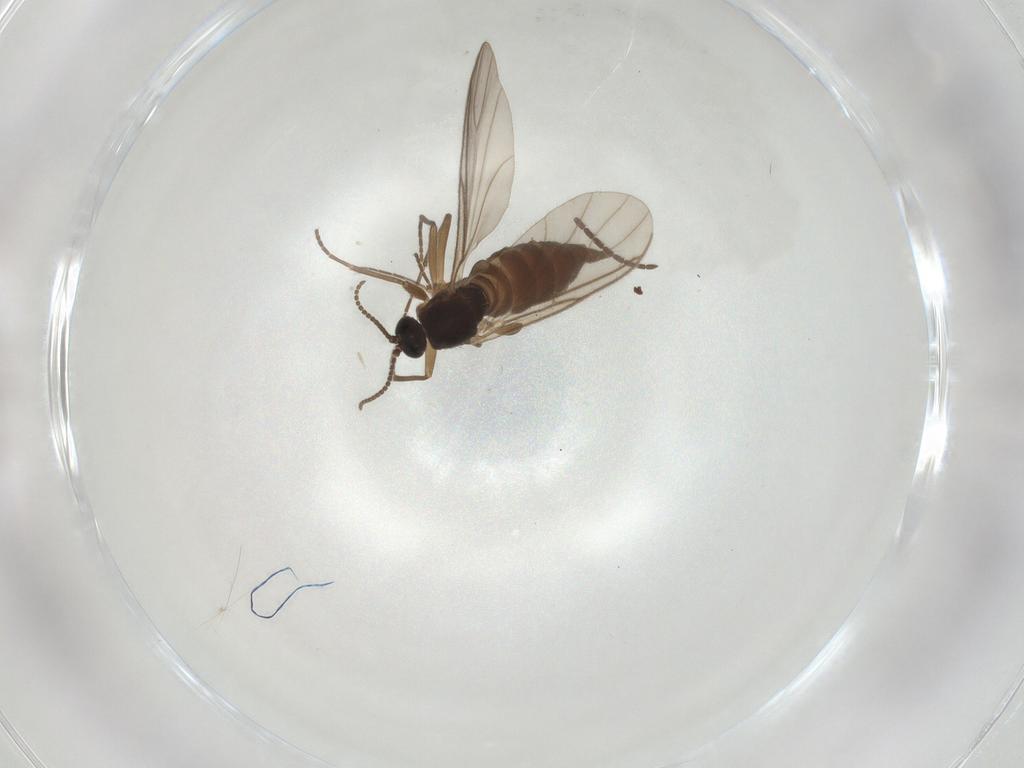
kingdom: Animalia
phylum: Arthropoda
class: Insecta
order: Diptera
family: Sciaridae
